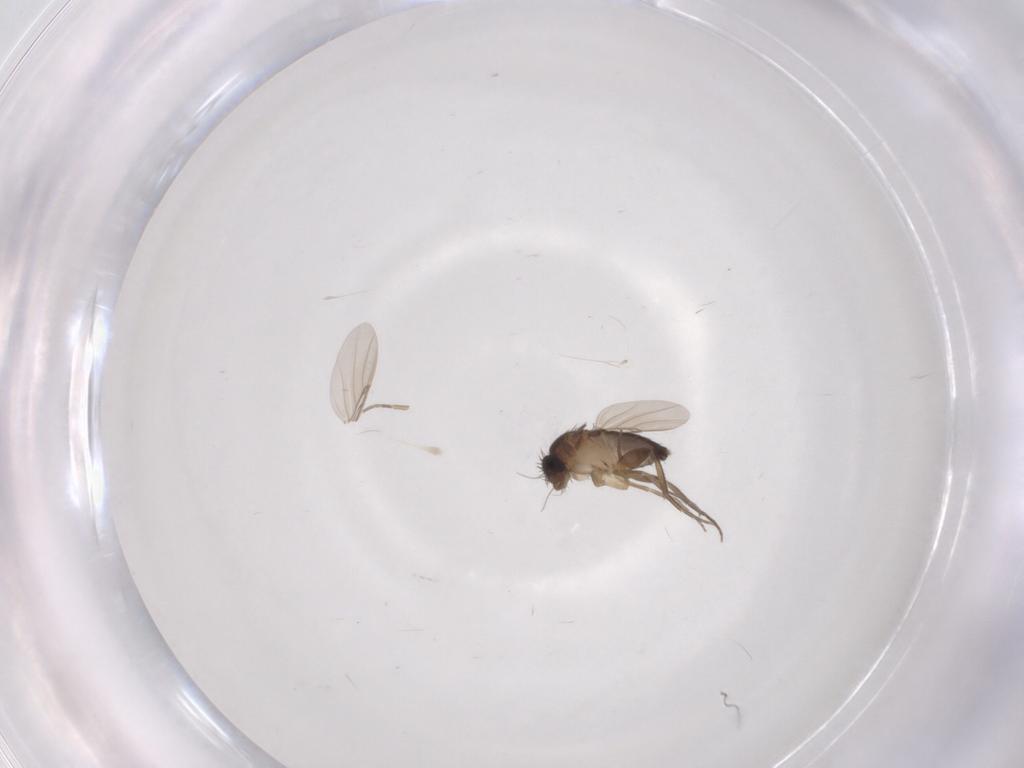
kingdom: Animalia
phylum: Arthropoda
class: Insecta
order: Diptera
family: Phoridae
